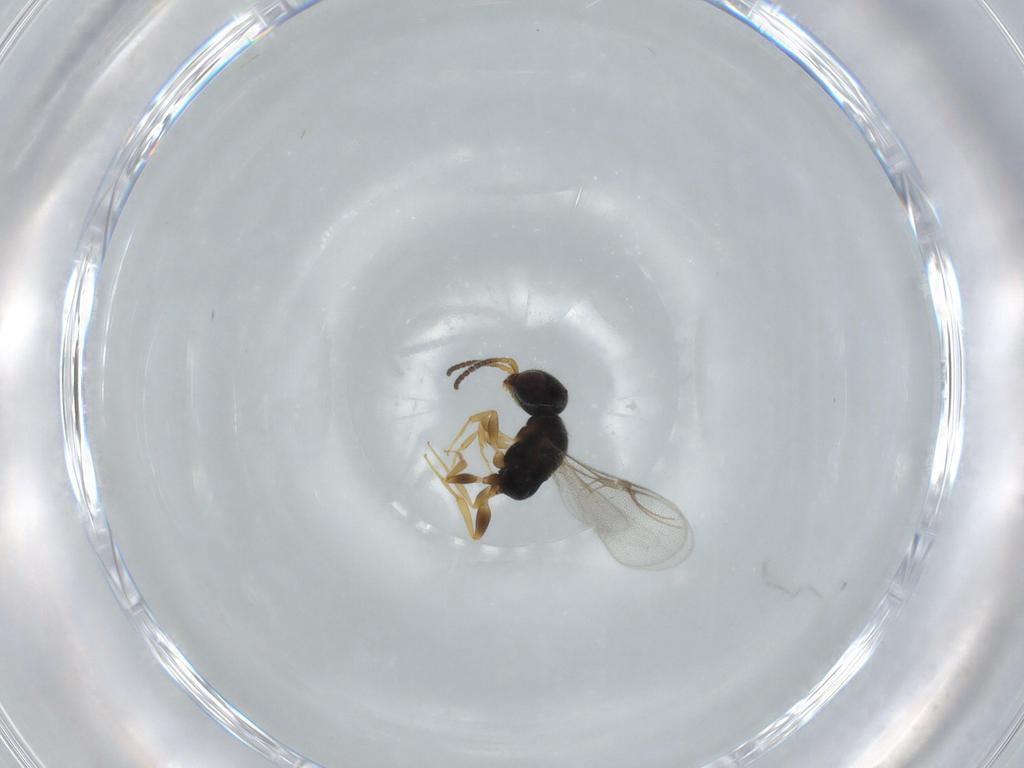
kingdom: Animalia
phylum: Arthropoda
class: Insecta
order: Hymenoptera
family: Bethylidae
